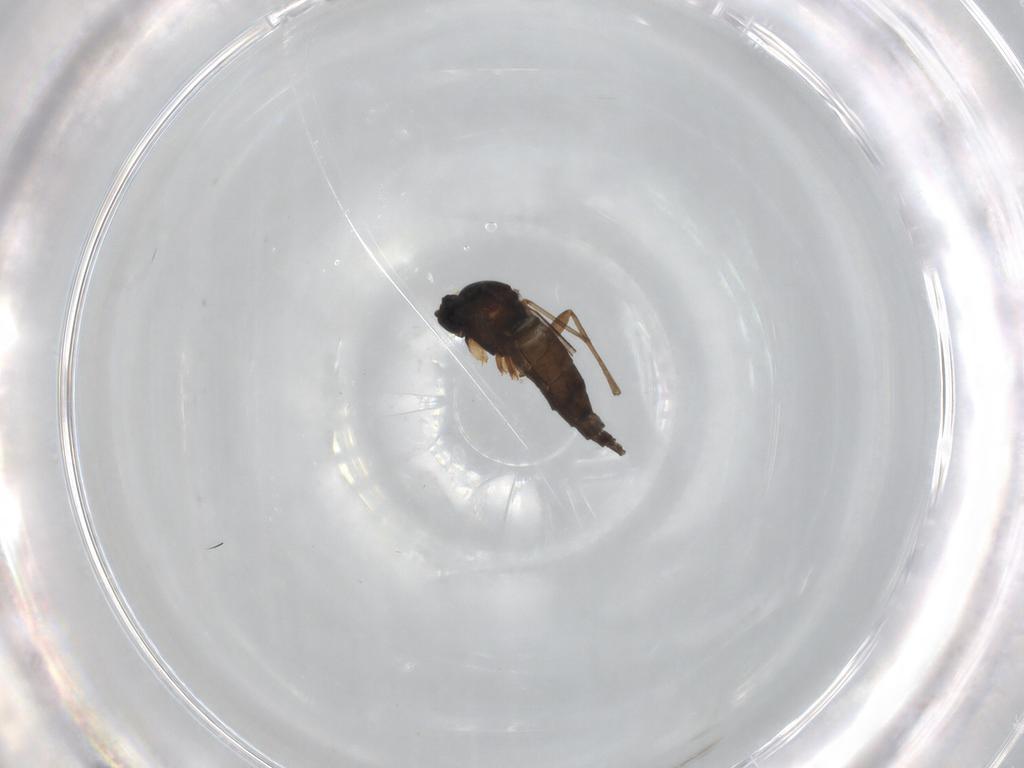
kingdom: Animalia
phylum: Arthropoda
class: Insecta
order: Diptera
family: Sciaridae
